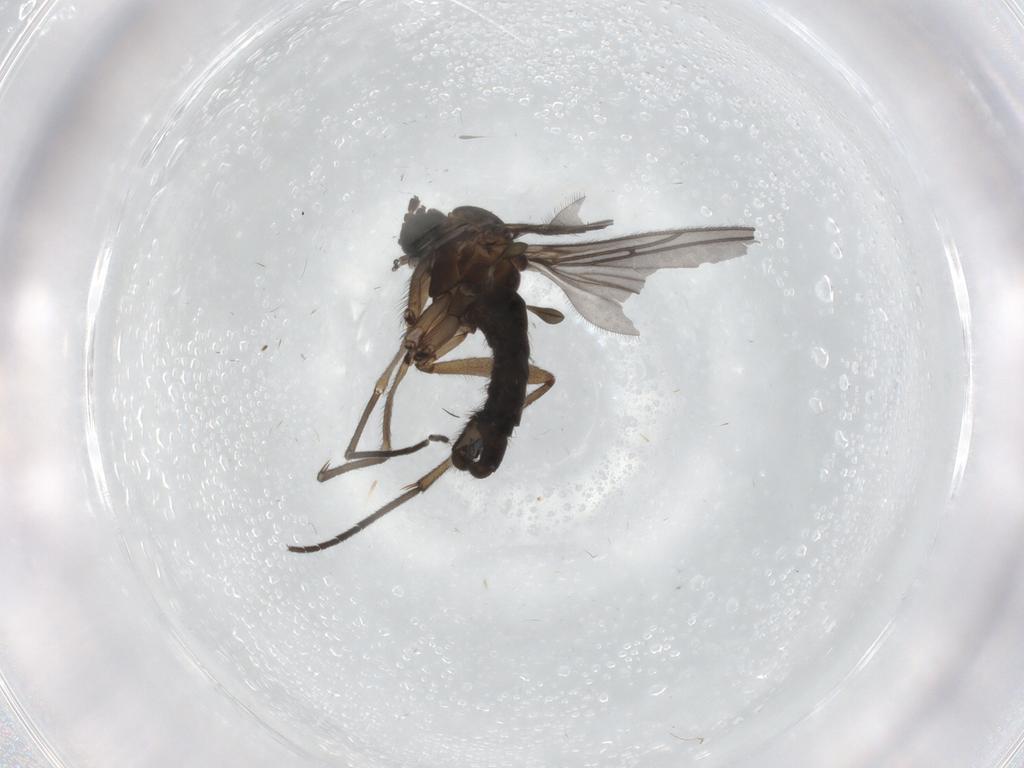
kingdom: Animalia
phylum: Arthropoda
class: Insecta
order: Diptera
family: Sciaridae
